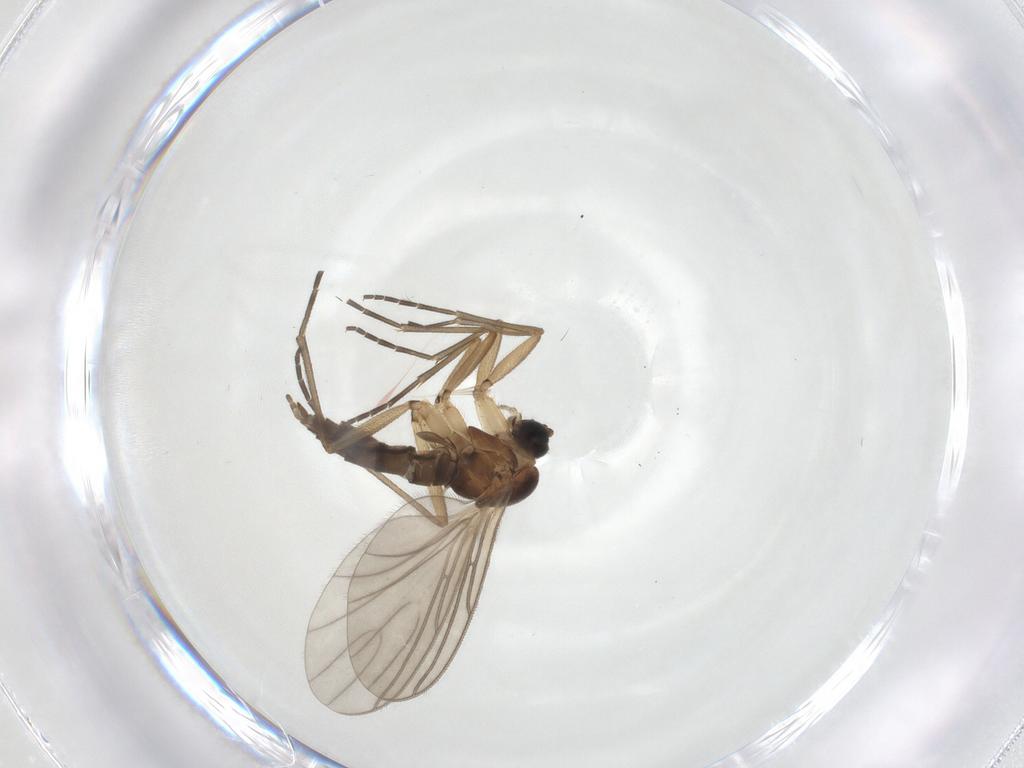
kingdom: Animalia
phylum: Arthropoda
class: Insecta
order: Diptera
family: Sciaridae
